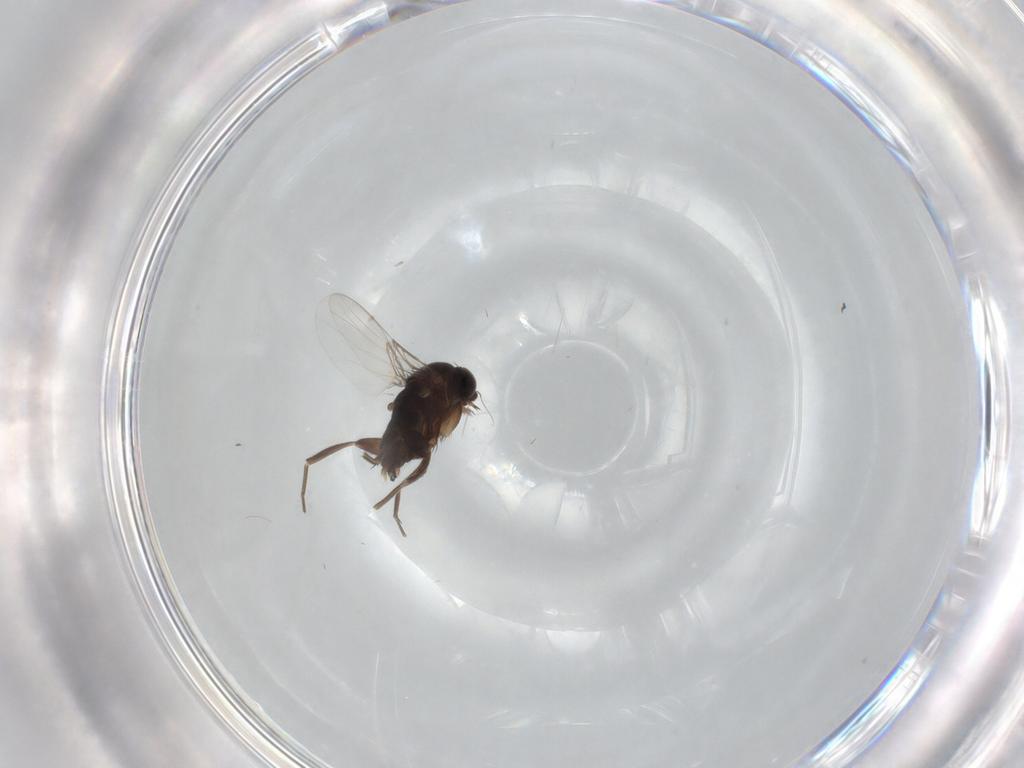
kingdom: Animalia
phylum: Arthropoda
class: Insecta
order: Diptera
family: Phoridae
